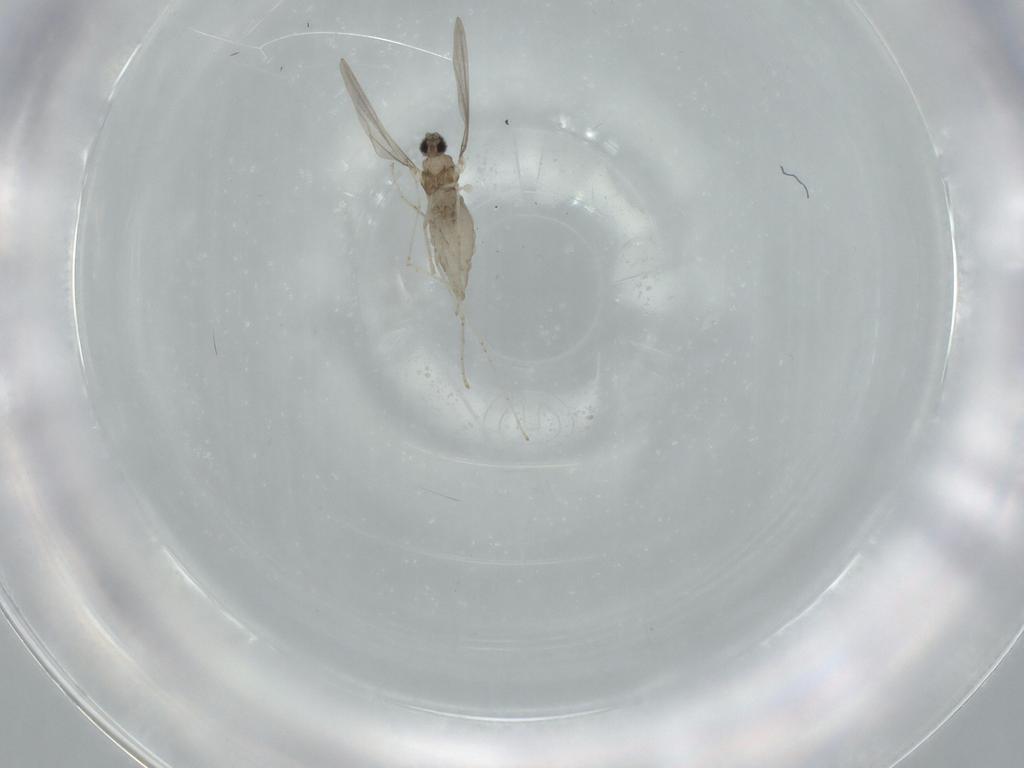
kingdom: Animalia
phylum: Arthropoda
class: Insecta
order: Diptera
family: Cecidomyiidae
